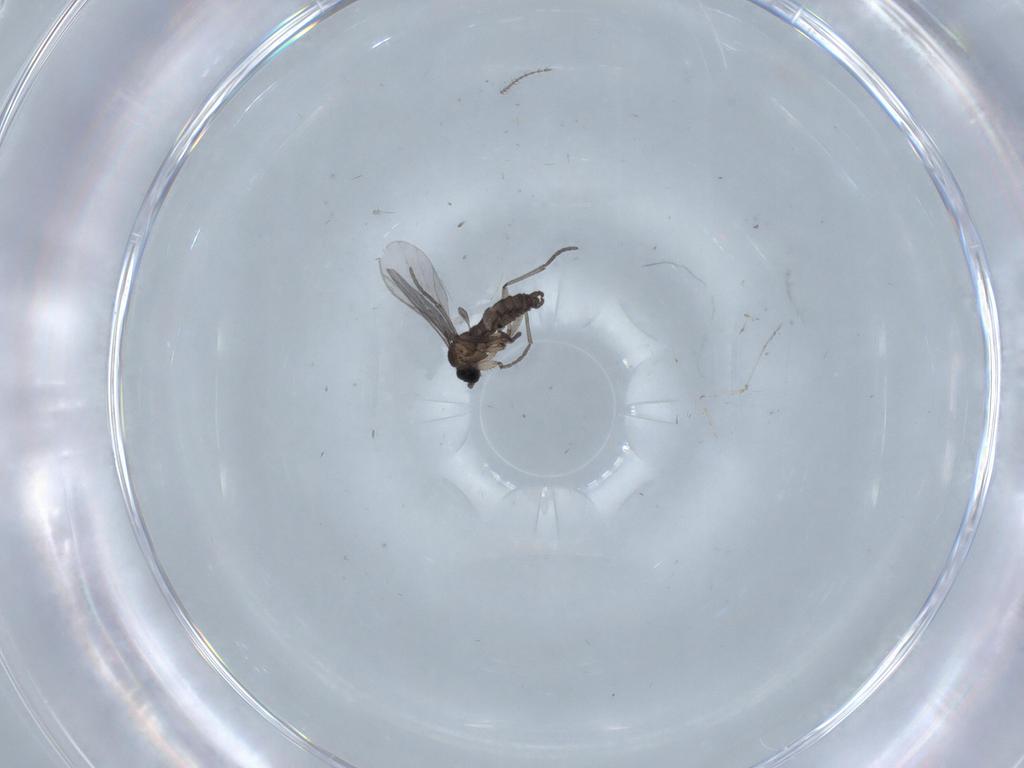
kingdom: Animalia
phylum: Arthropoda
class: Insecta
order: Diptera
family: Ceratopogonidae
